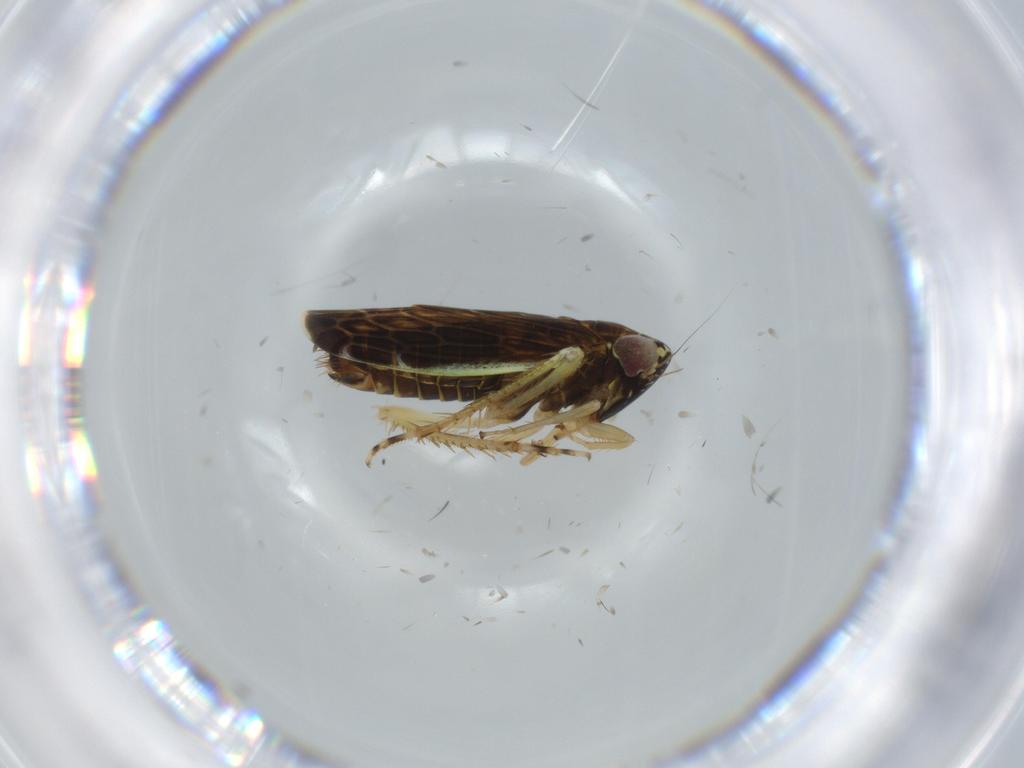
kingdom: Animalia
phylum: Arthropoda
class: Insecta
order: Hemiptera
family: Cicadellidae
